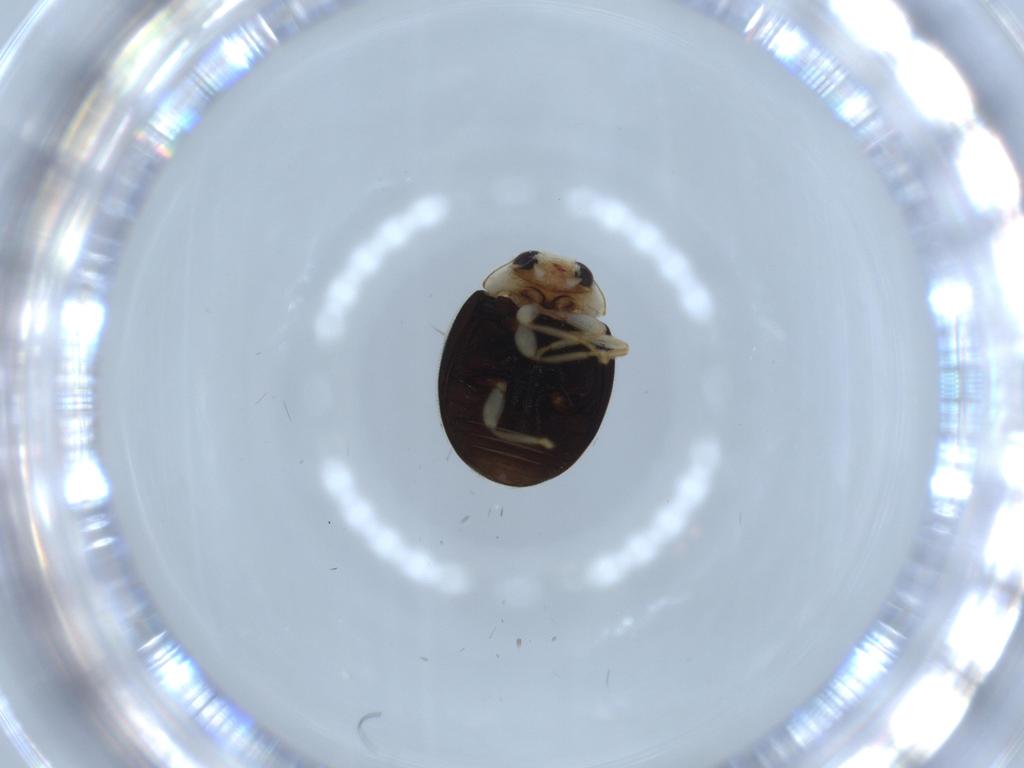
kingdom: Animalia
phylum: Arthropoda
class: Insecta
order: Coleoptera
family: Coccinellidae
